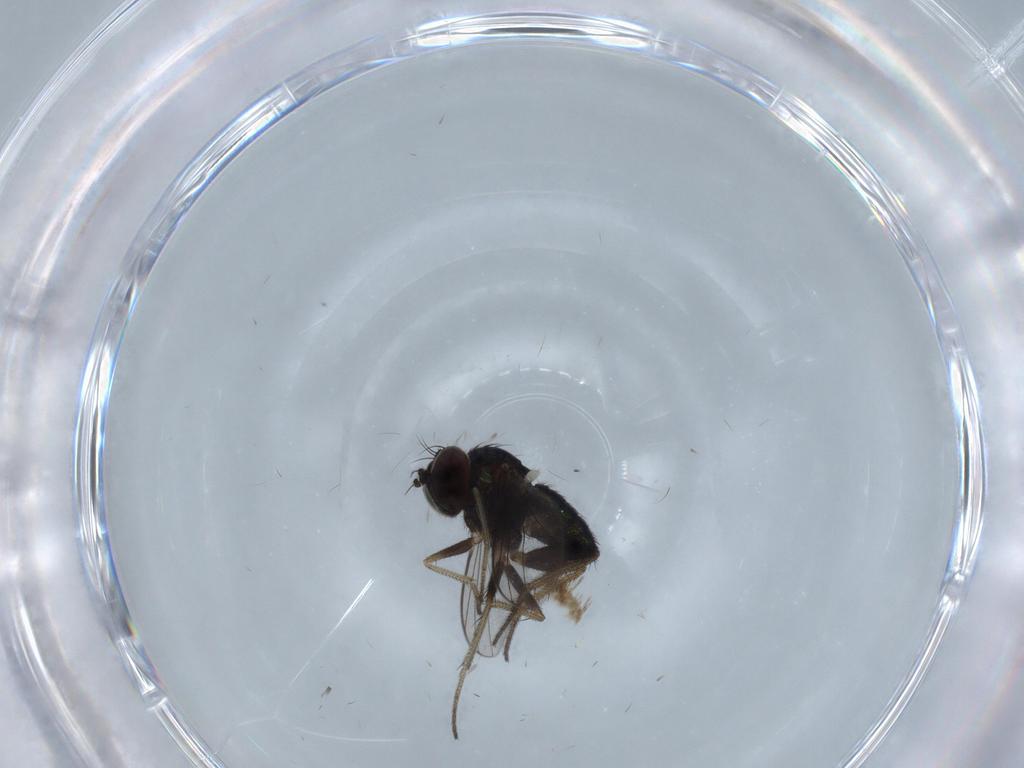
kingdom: Animalia
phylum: Arthropoda
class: Insecta
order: Diptera
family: Dolichopodidae
